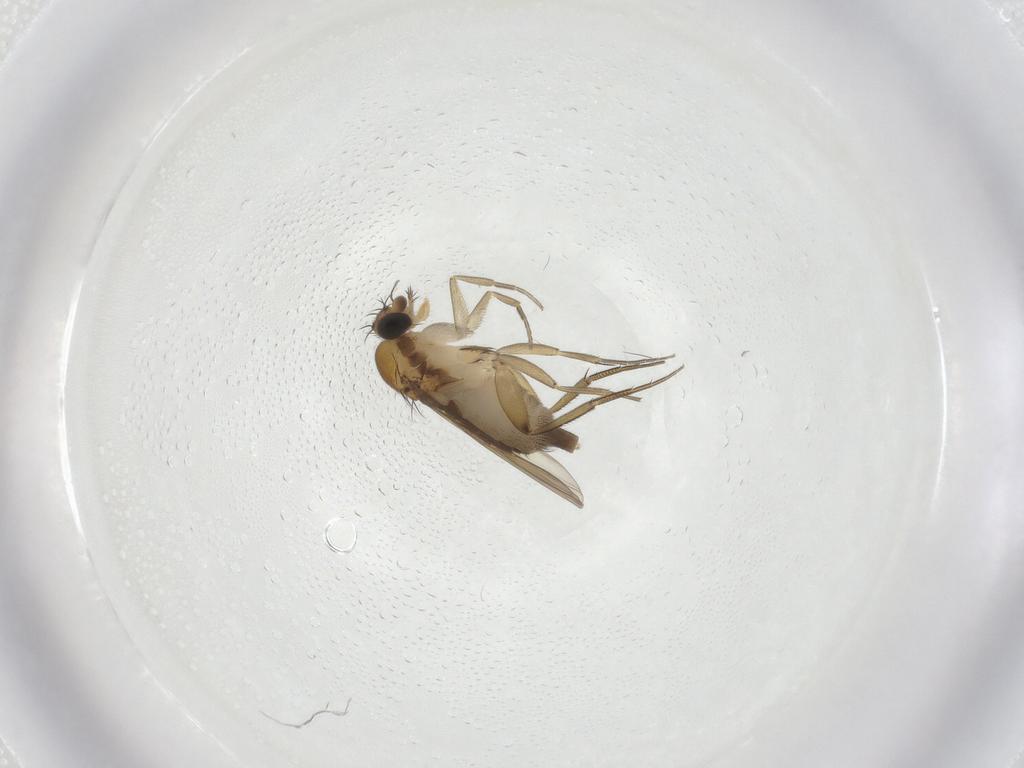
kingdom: Animalia
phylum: Arthropoda
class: Insecta
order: Diptera
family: Phoridae
